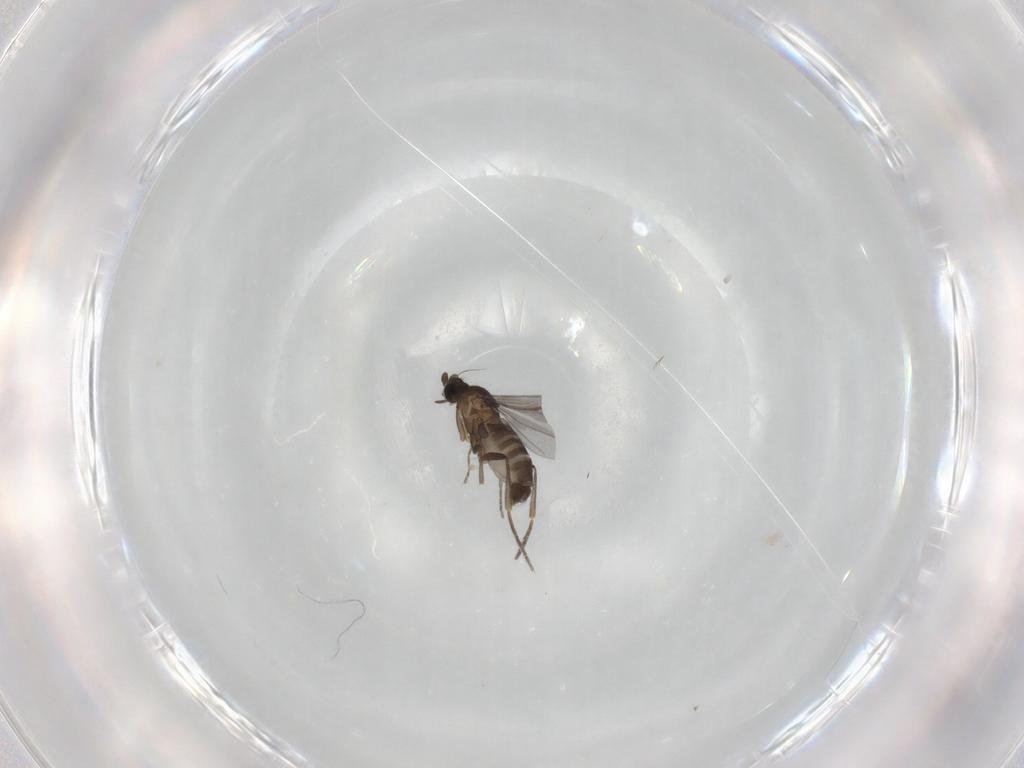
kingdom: Animalia
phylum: Arthropoda
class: Insecta
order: Diptera
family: Phoridae
